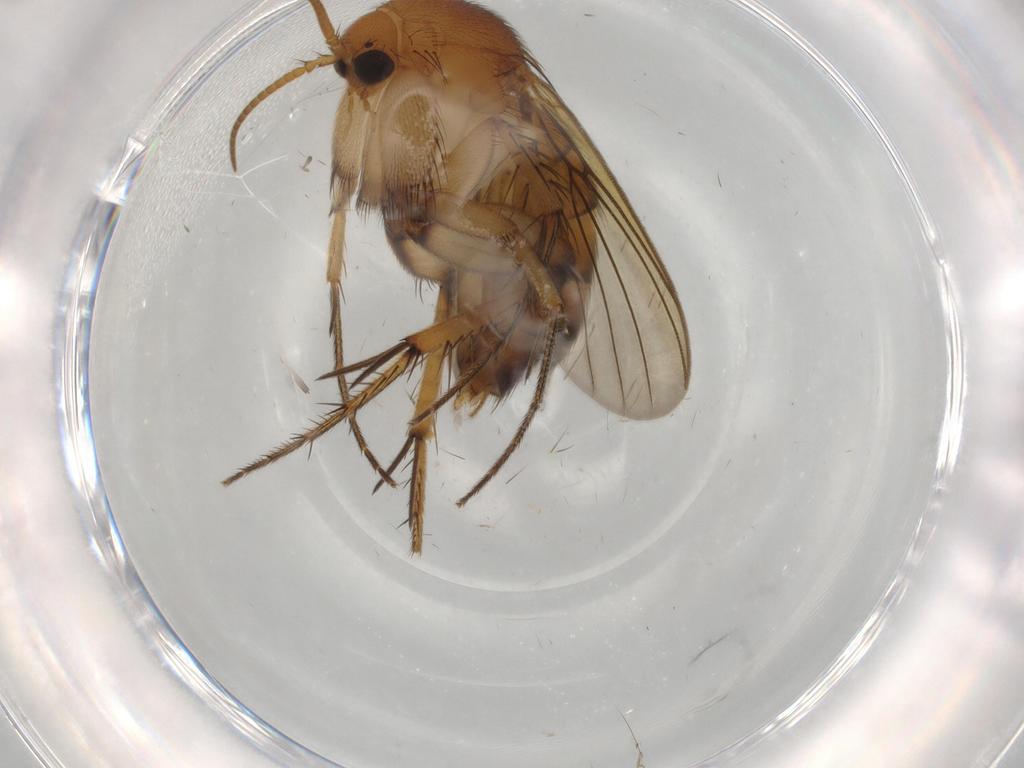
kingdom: Animalia
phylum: Arthropoda
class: Insecta
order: Diptera
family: Mycetophilidae
